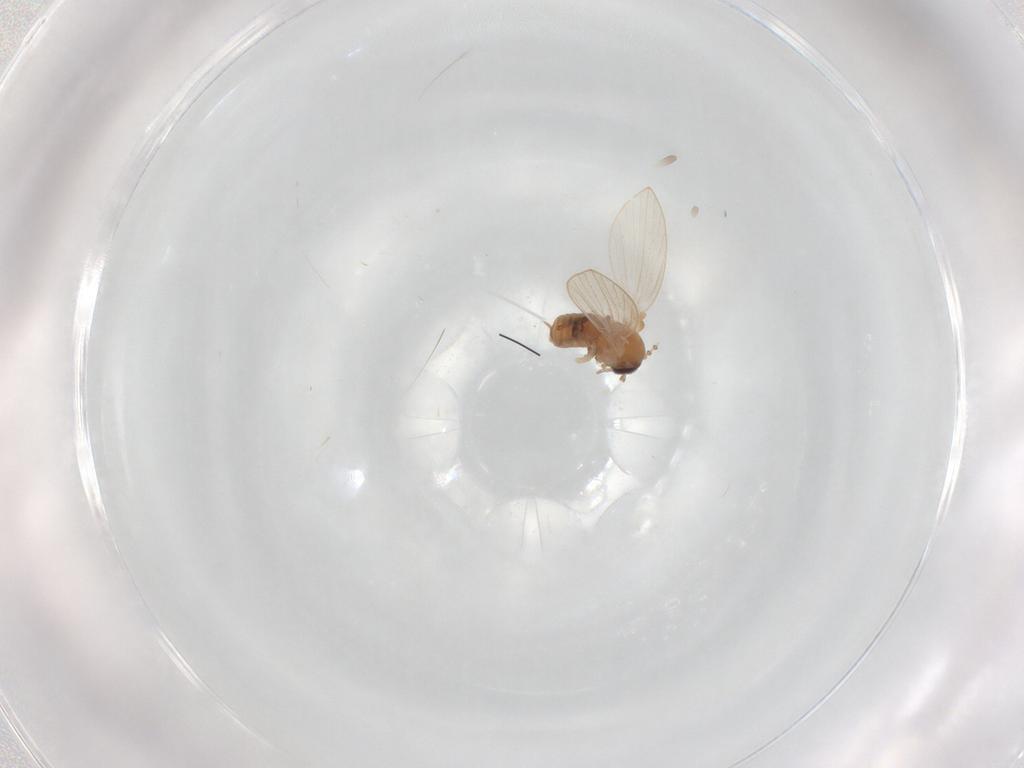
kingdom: Animalia
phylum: Arthropoda
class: Insecta
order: Diptera
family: Psychodidae
